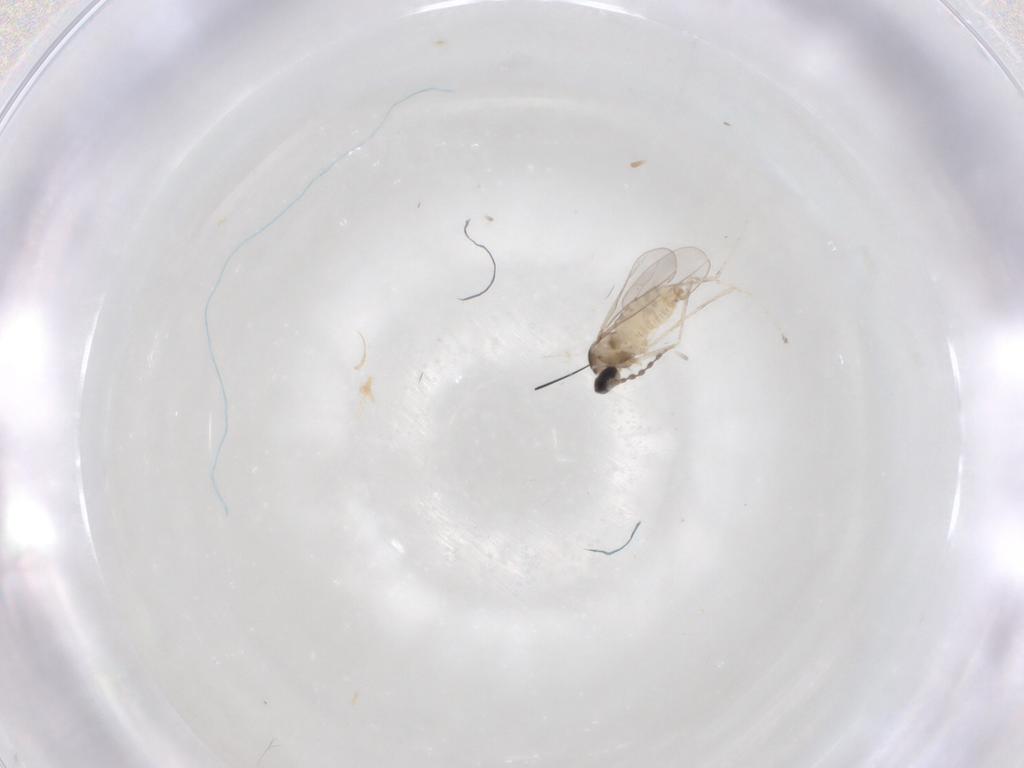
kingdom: Animalia
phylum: Arthropoda
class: Insecta
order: Diptera
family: Cecidomyiidae
